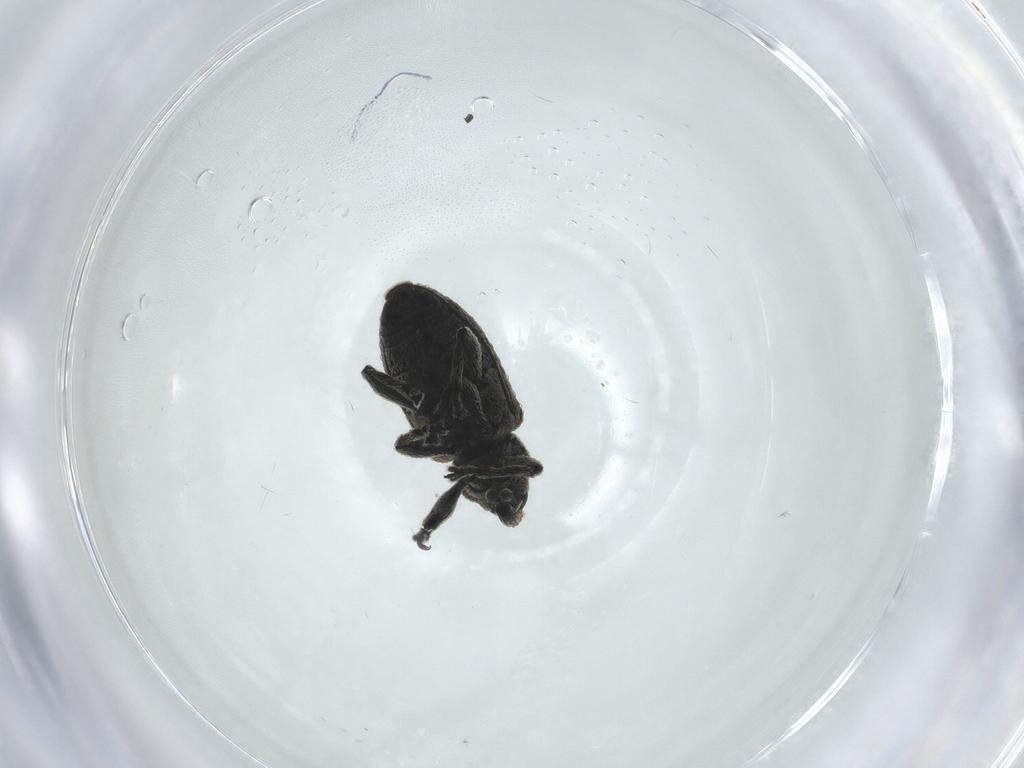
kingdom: Animalia
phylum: Arthropoda
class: Insecta
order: Coleoptera
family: Curculionidae
